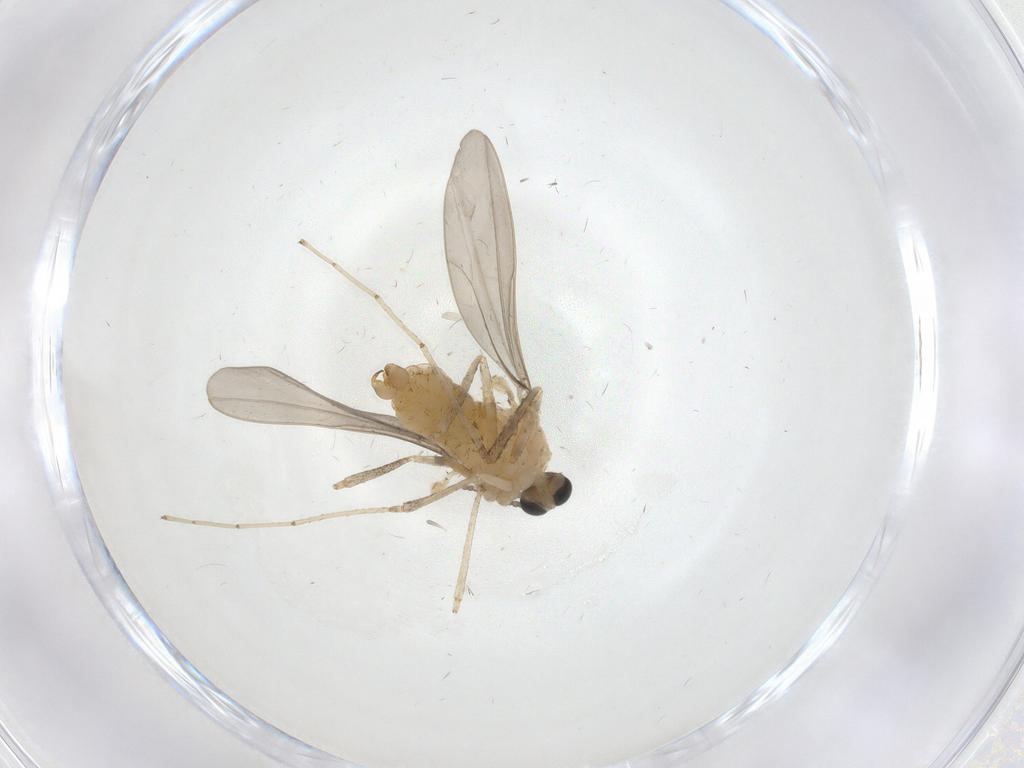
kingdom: Animalia
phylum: Arthropoda
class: Insecta
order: Diptera
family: Cecidomyiidae
